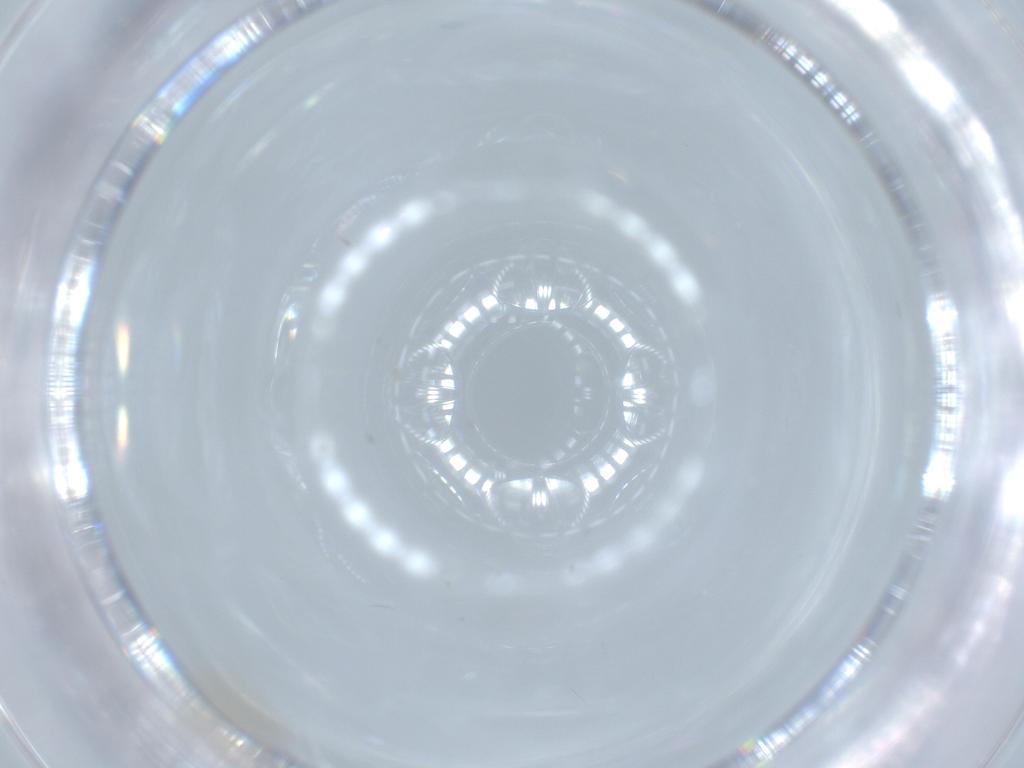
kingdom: Animalia
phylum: Arthropoda
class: Insecta
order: Coleoptera
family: Chrysomelidae
